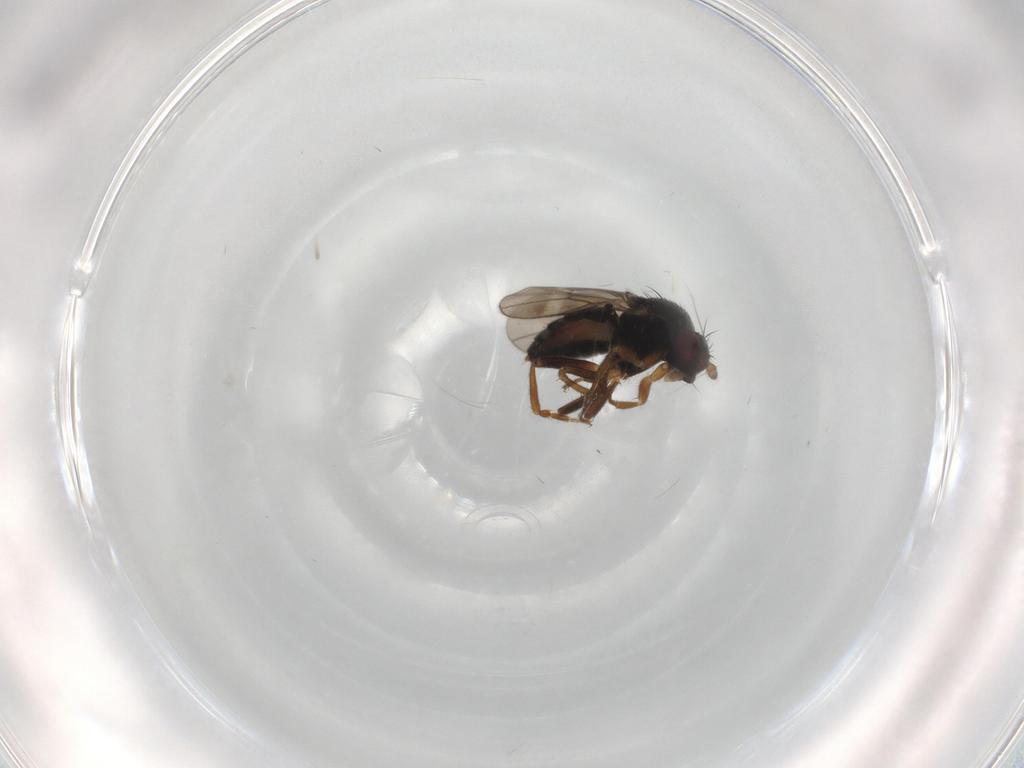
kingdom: Animalia
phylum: Arthropoda
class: Insecta
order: Diptera
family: Sphaeroceridae
